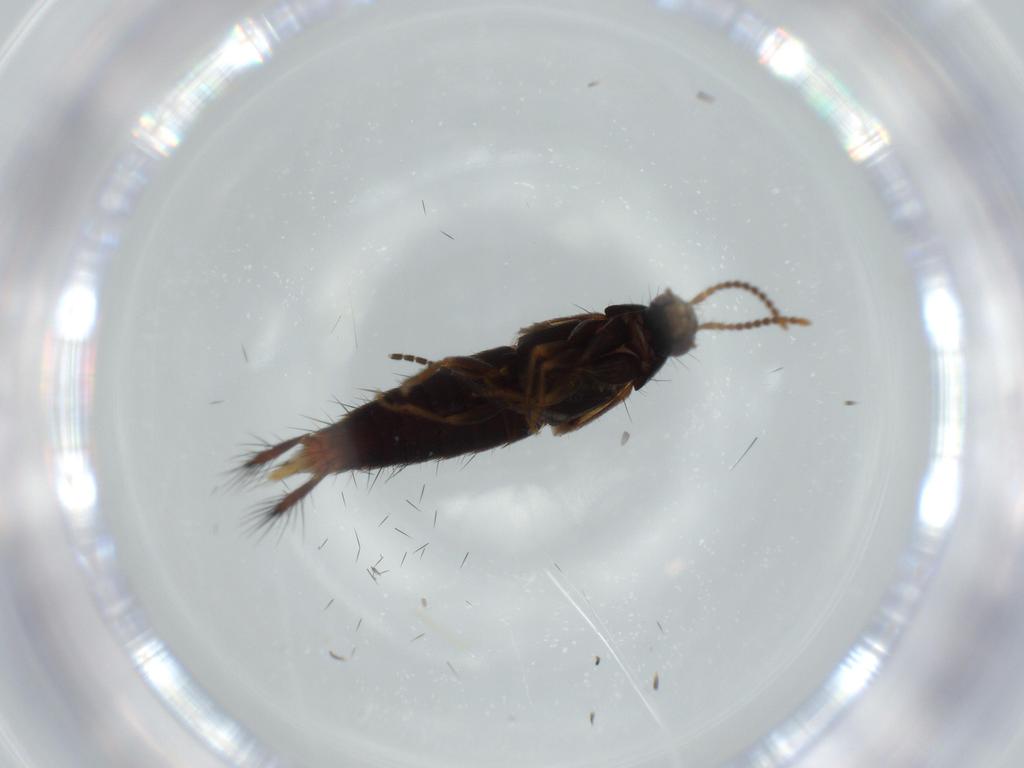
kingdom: Animalia
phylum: Arthropoda
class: Insecta
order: Coleoptera
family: Staphylinidae
